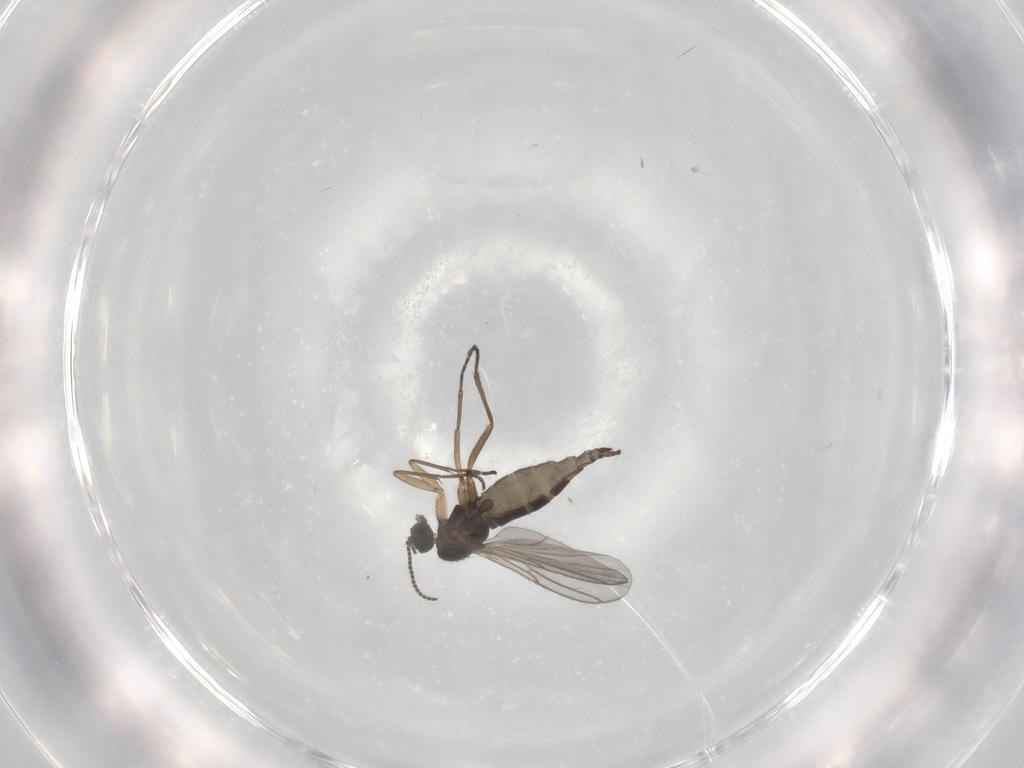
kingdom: Animalia
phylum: Arthropoda
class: Insecta
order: Diptera
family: Sciaridae
